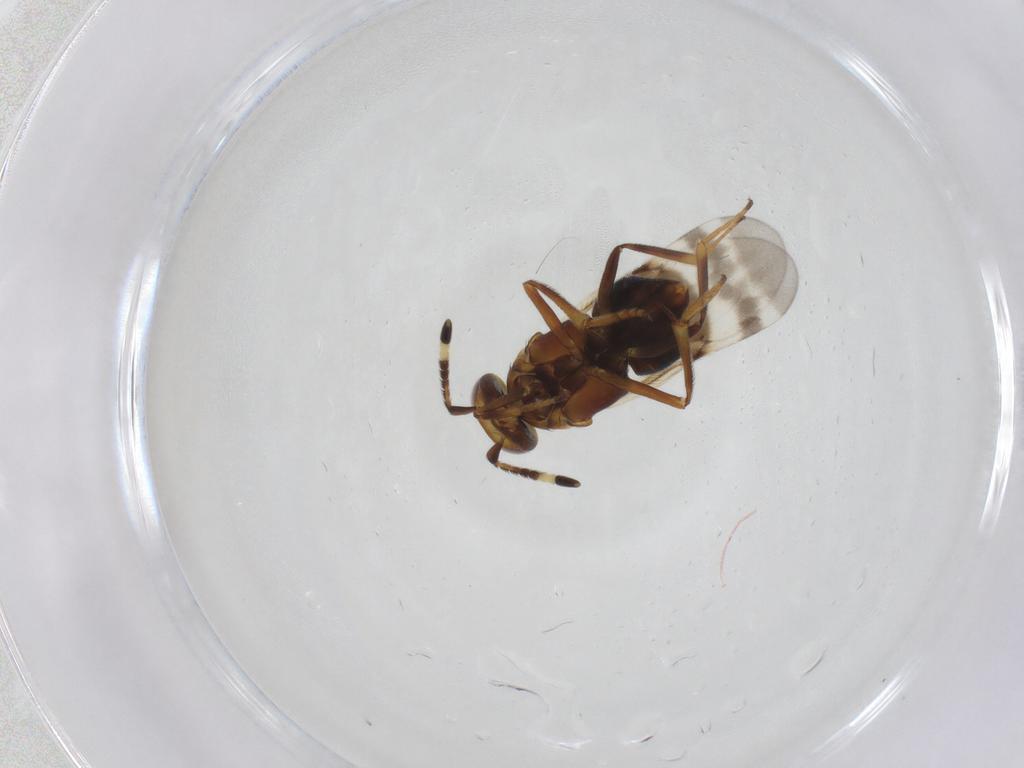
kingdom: Animalia
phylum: Arthropoda
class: Insecta
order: Hymenoptera
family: Encyrtidae
